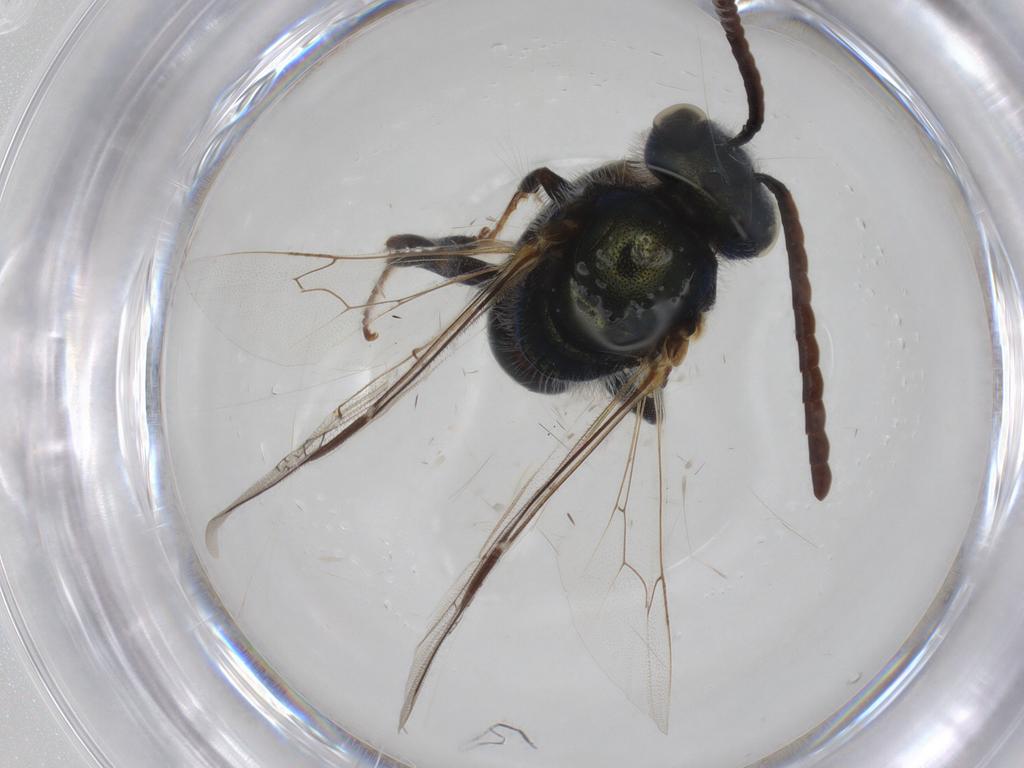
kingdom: Animalia
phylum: Arthropoda
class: Insecta
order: Hymenoptera
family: Halictidae
